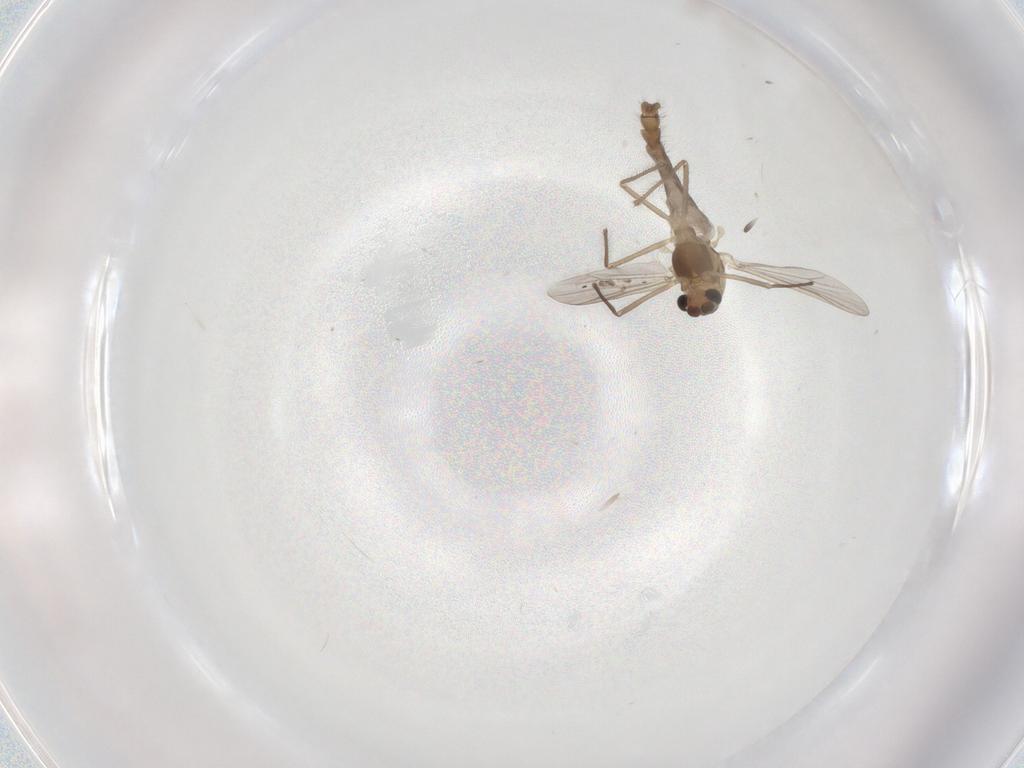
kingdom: Animalia
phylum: Arthropoda
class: Insecta
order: Diptera
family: Chironomidae
